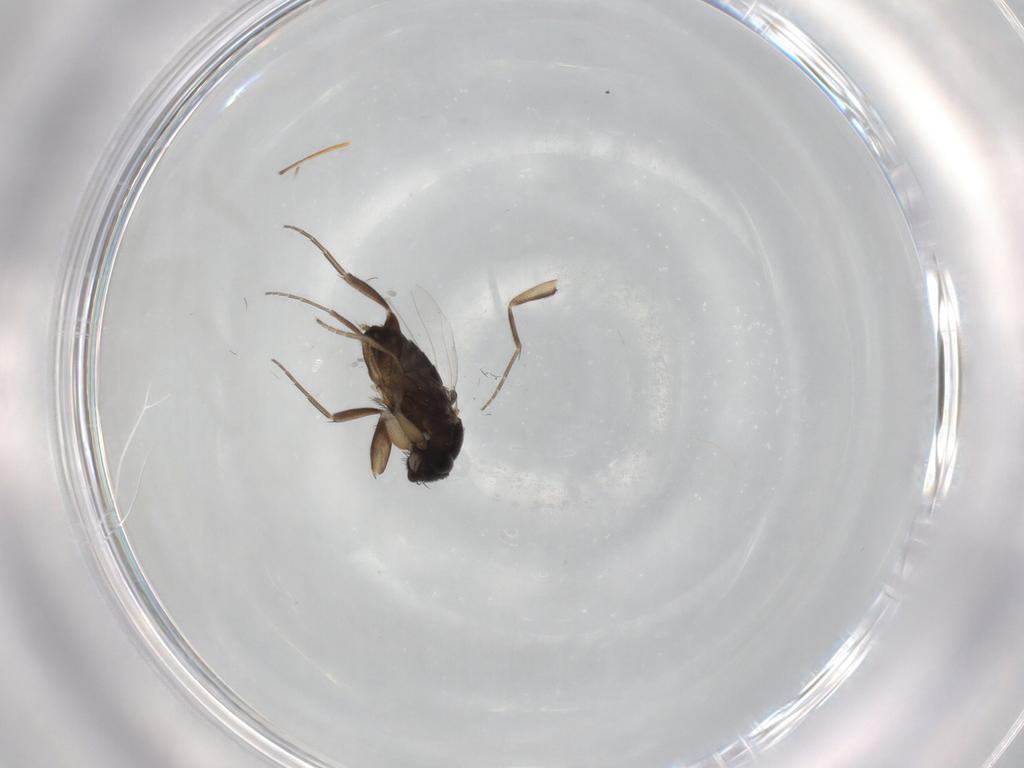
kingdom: Animalia
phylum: Arthropoda
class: Insecta
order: Diptera
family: Phoridae
